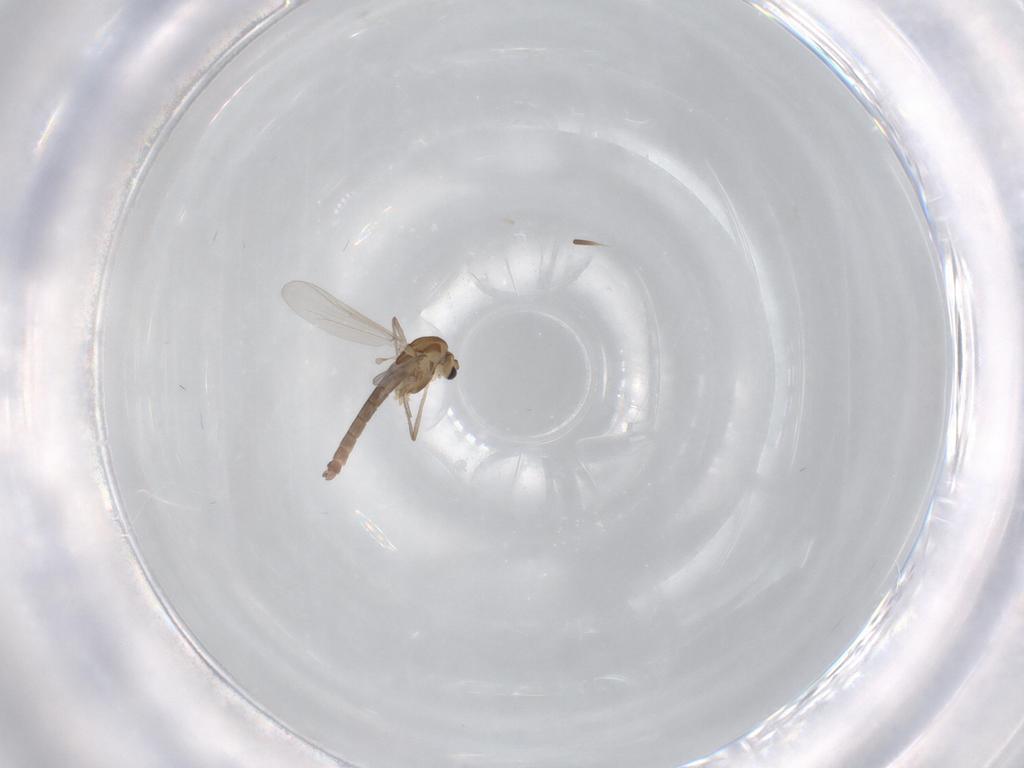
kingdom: Animalia
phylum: Arthropoda
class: Insecta
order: Diptera
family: Chironomidae
